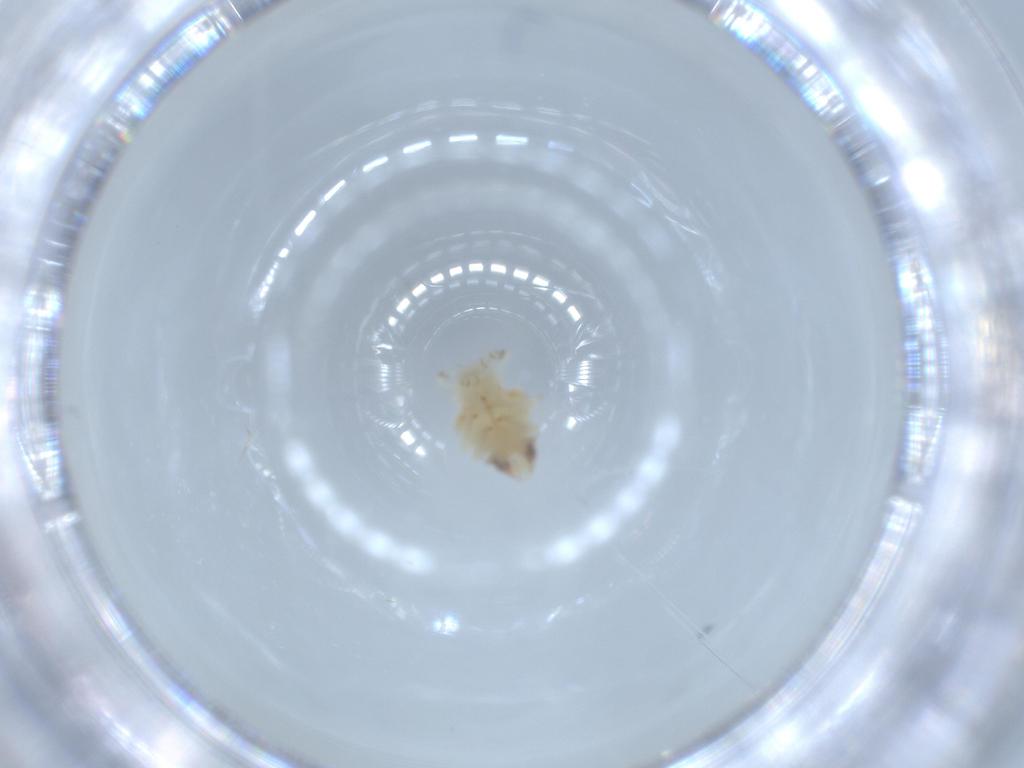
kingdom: Animalia
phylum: Arthropoda
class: Insecta
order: Hemiptera
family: Nogodinidae
